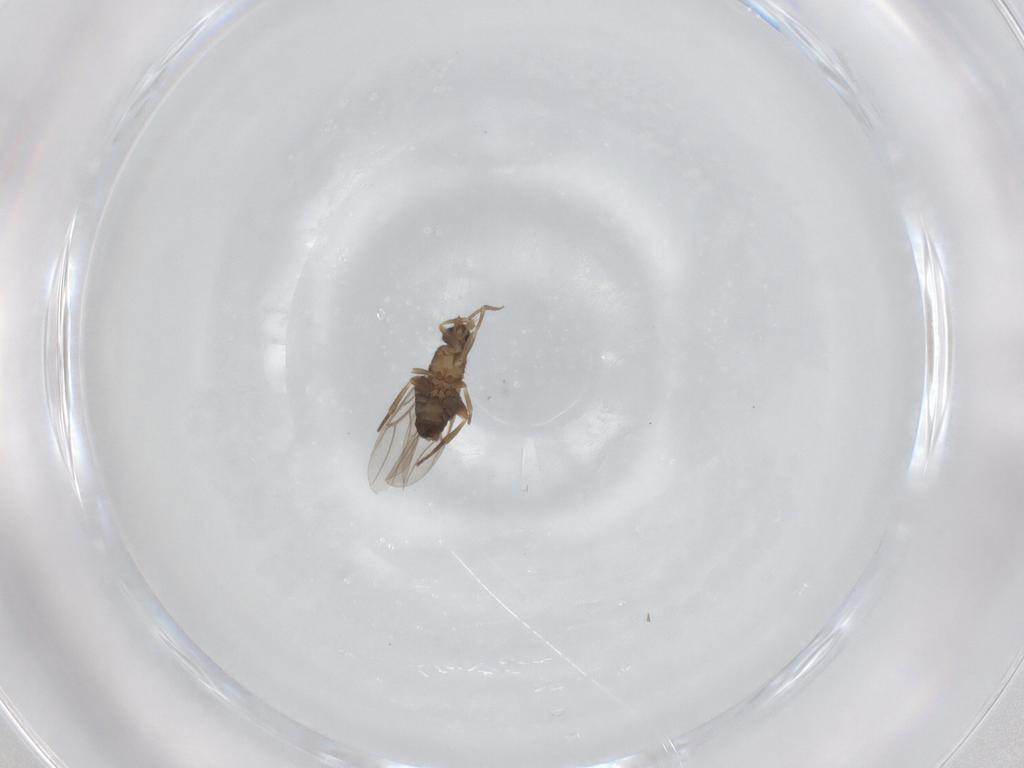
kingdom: Animalia
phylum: Arthropoda
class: Insecta
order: Diptera
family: Phoridae
